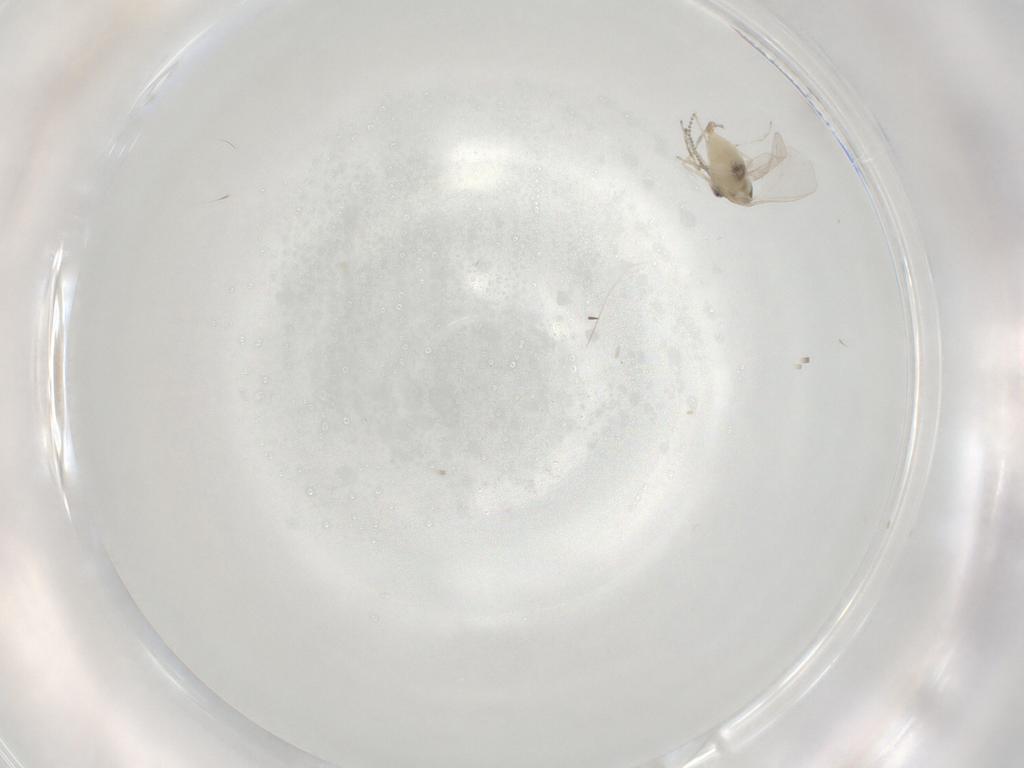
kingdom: Animalia
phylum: Arthropoda
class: Insecta
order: Diptera
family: Cecidomyiidae
